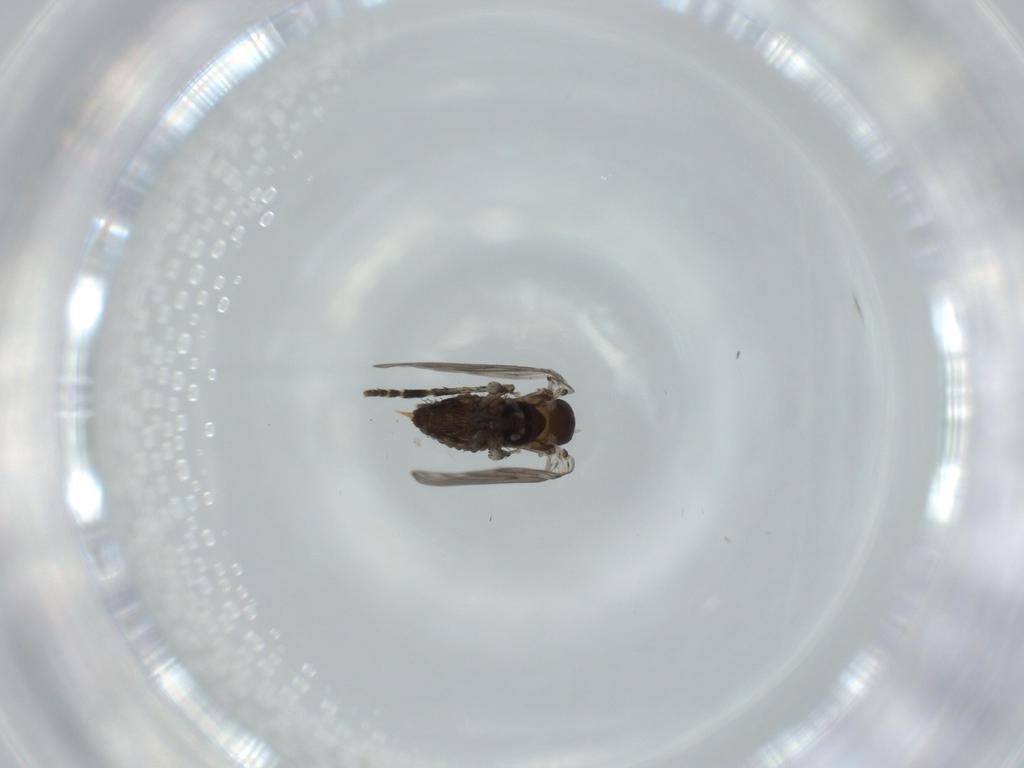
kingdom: Animalia
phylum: Arthropoda
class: Insecta
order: Diptera
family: Psychodidae
